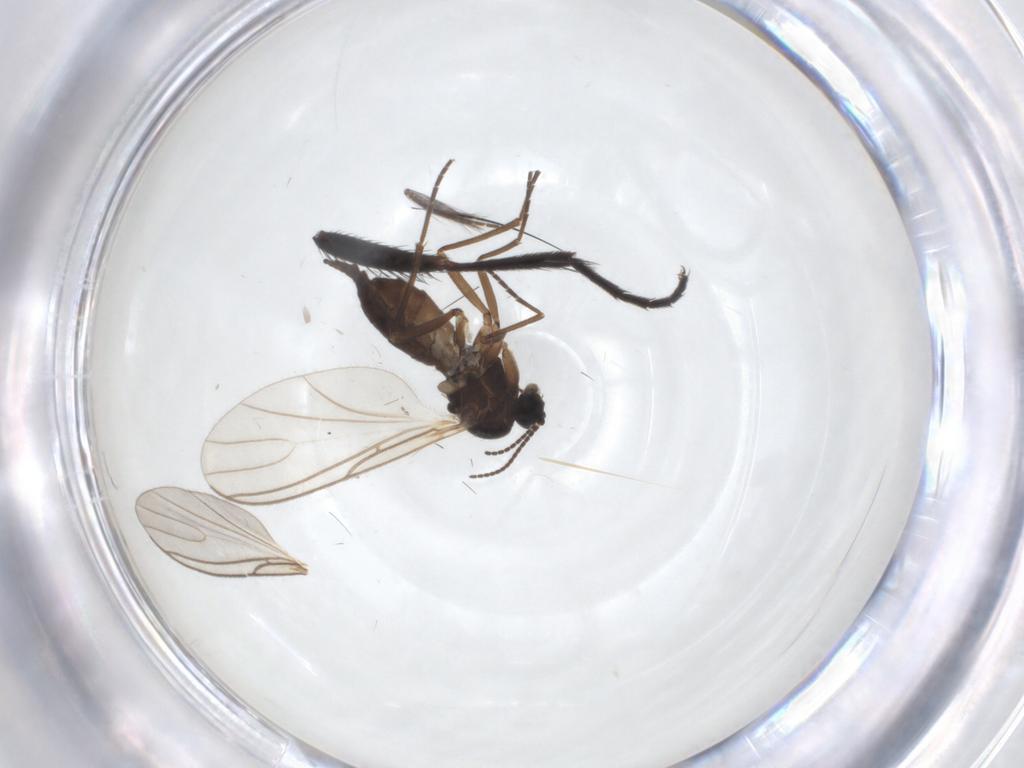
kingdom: Animalia
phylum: Arthropoda
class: Insecta
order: Diptera
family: Ceratopogonidae
